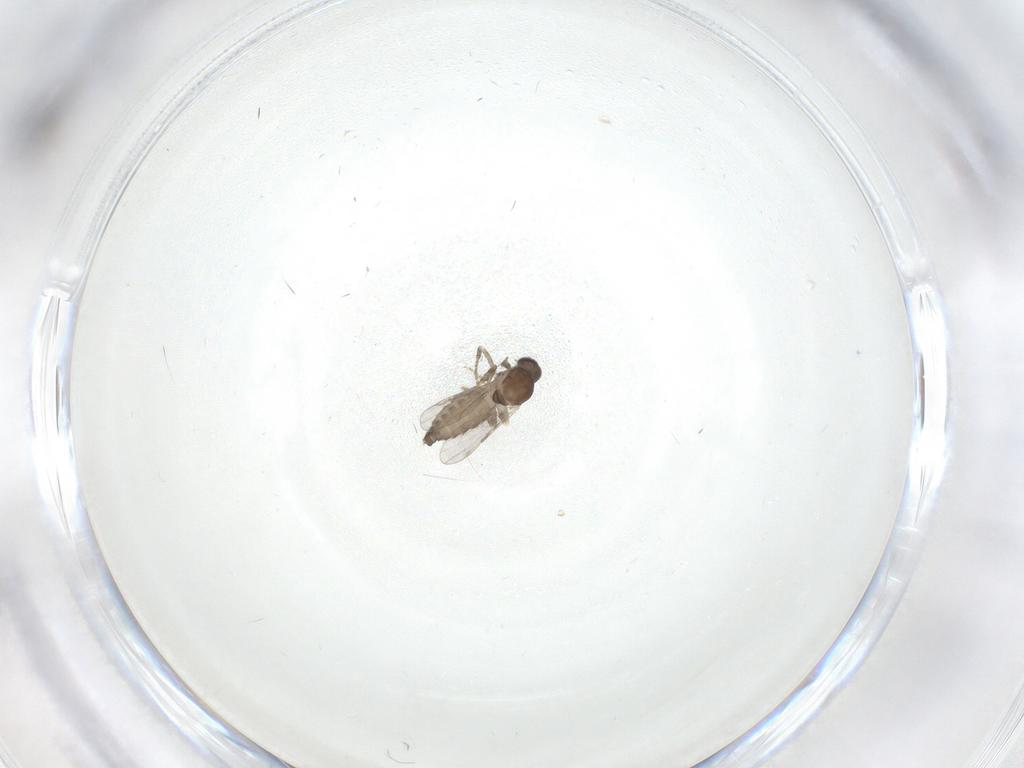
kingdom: Animalia
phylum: Arthropoda
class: Insecta
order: Diptera
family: Ceratopogonidae
